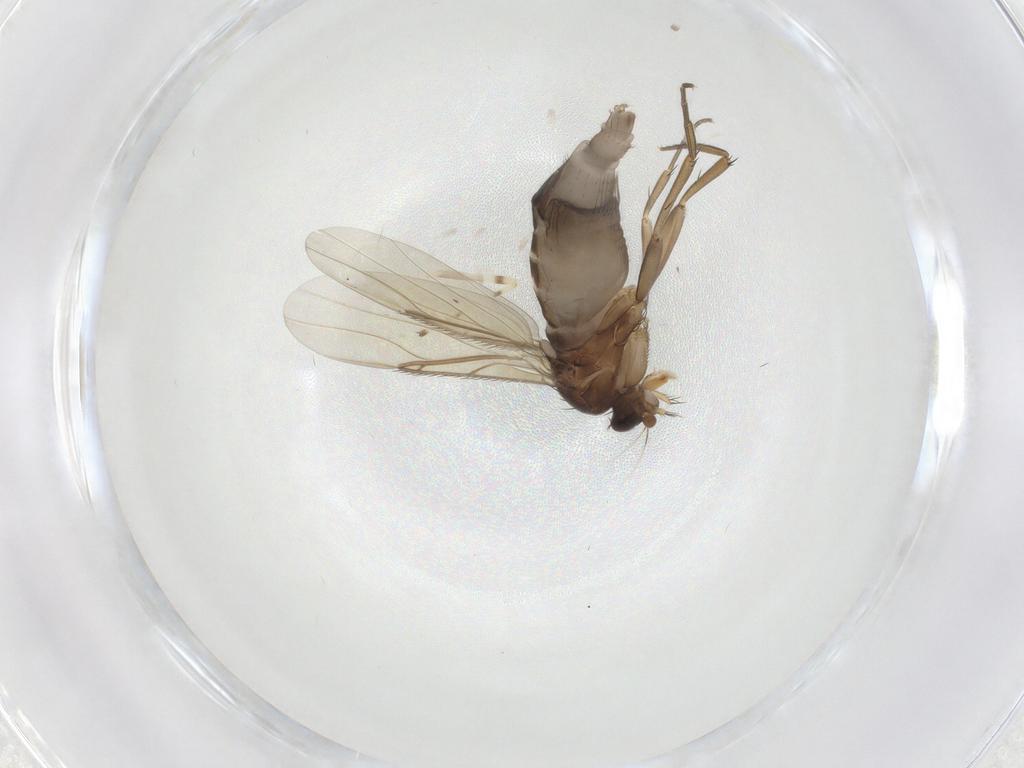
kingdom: Animalia
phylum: Arthropoda
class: Insecta
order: Diptera
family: Phoridae
